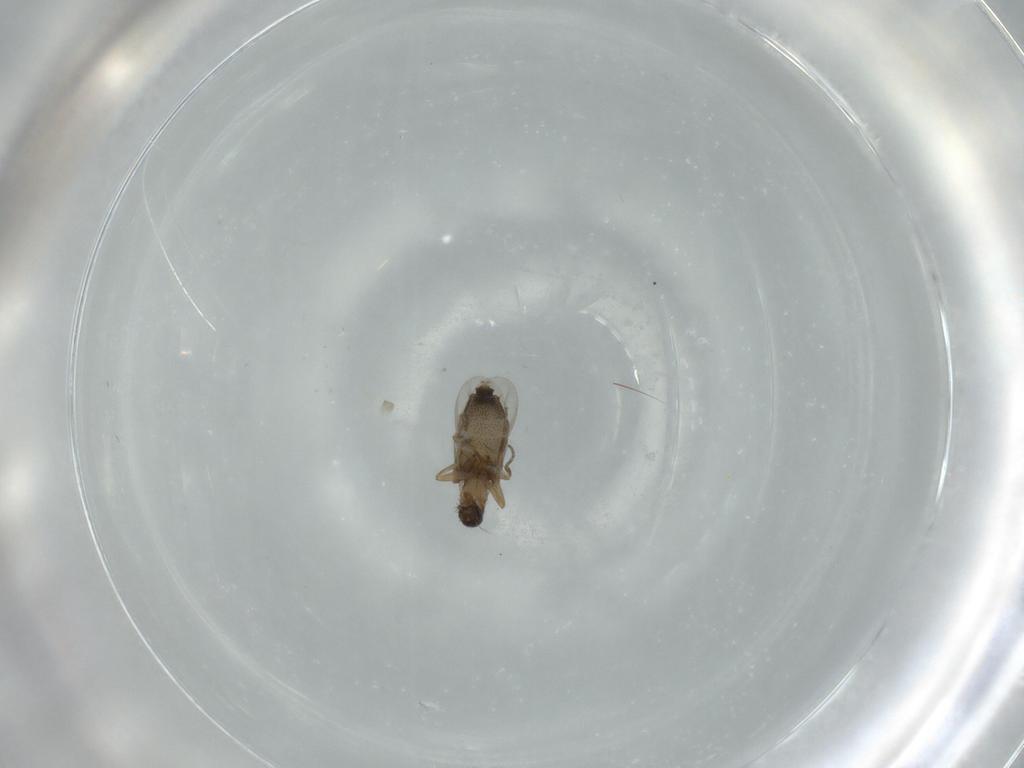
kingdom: Animalia
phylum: Arthropoda
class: Insecta
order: Diptera
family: Phoridae
